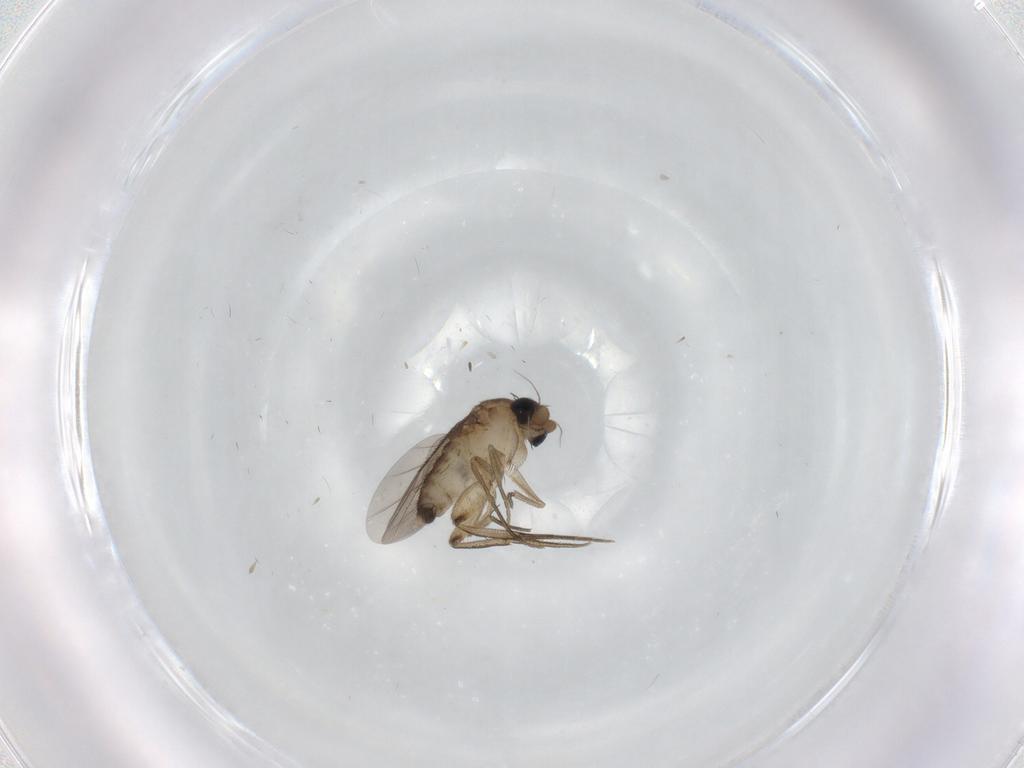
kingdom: Animalia
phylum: Arthropoda
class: Insecta
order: Diptera
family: Phoridae
